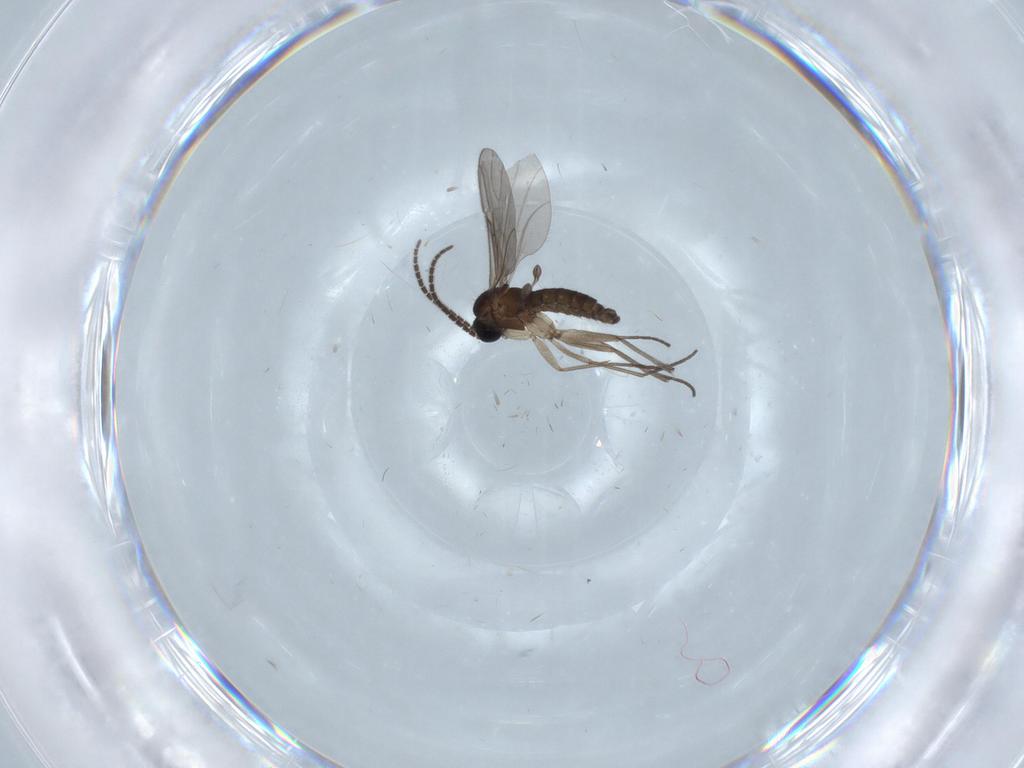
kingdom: Animalia
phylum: Arthropoda
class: Insecta
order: Diptera
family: Sciaridae
